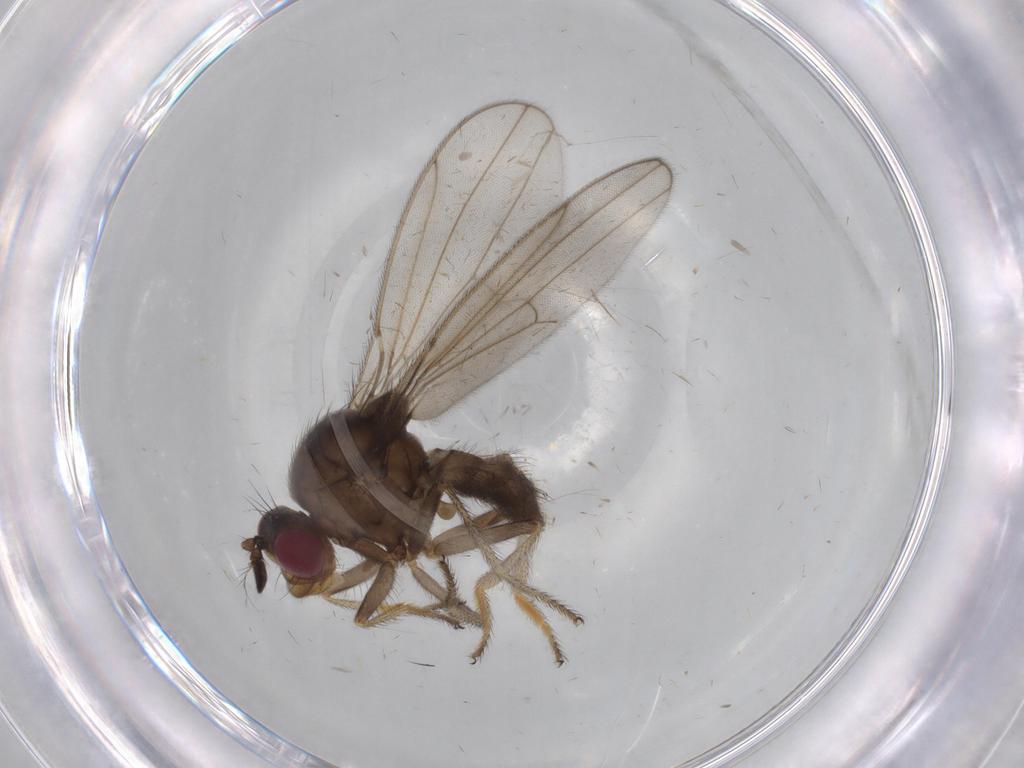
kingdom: Animalia
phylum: Arthropoda
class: Insecta
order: Diptera
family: Ephydridae
